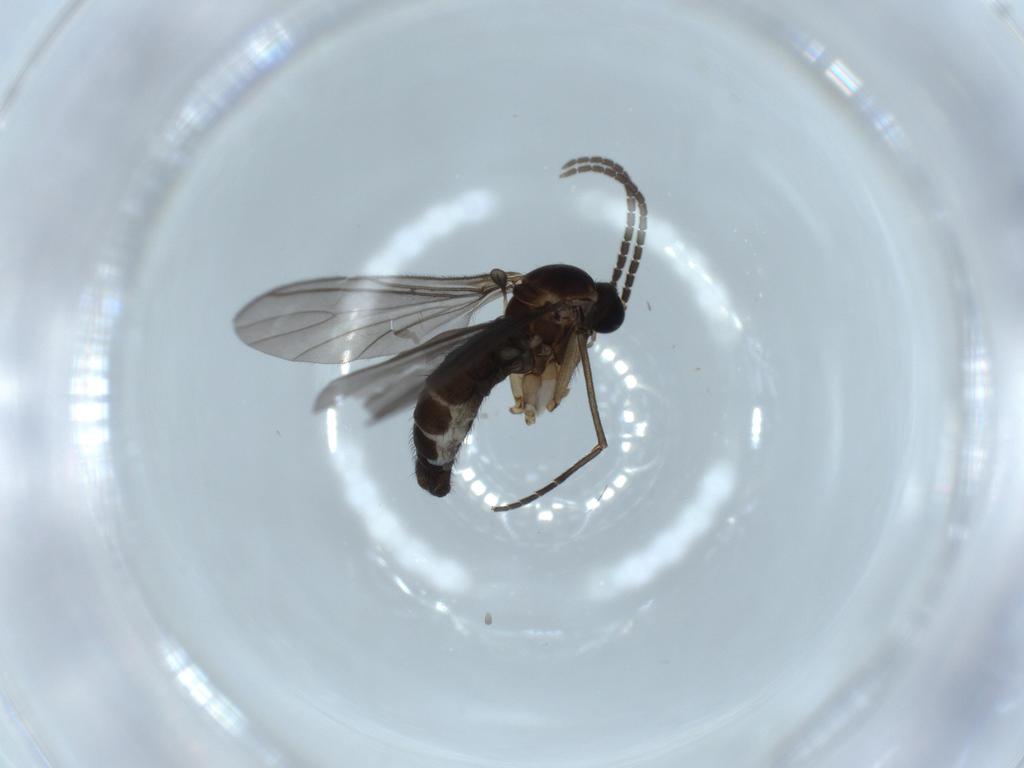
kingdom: Animalia
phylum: Arthropoda
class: Insecta
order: Diptera
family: Sciaridae
